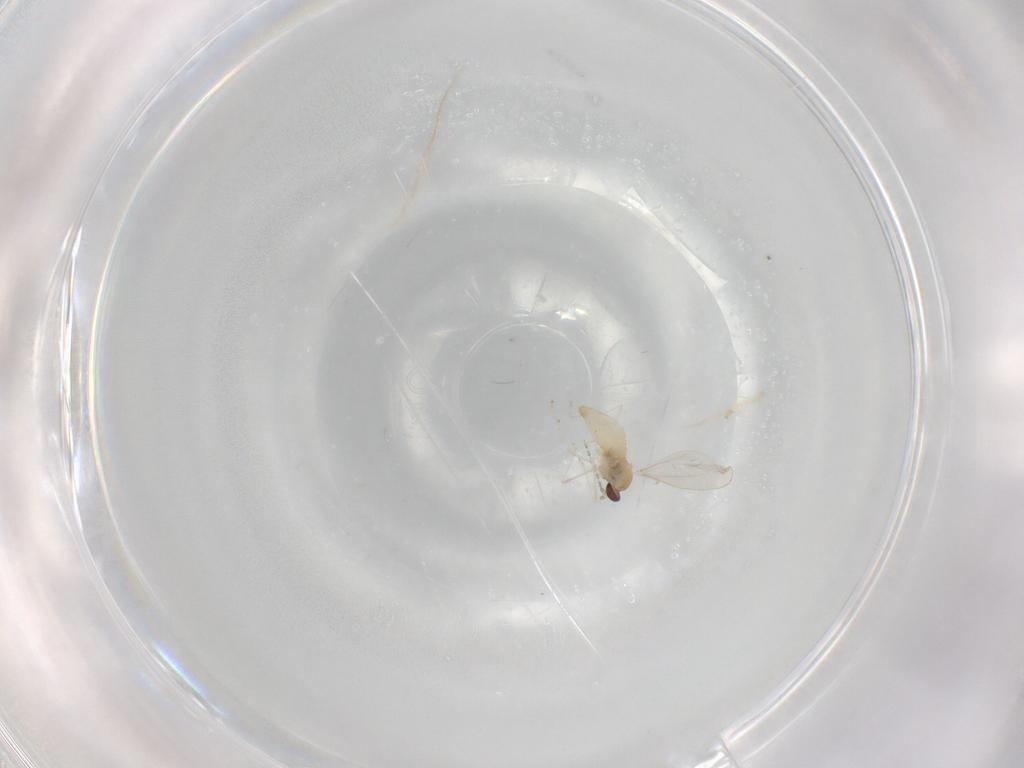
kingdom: Animalia
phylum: Arthropoda
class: Insecta
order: Diptera
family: Cecidomyiidae
